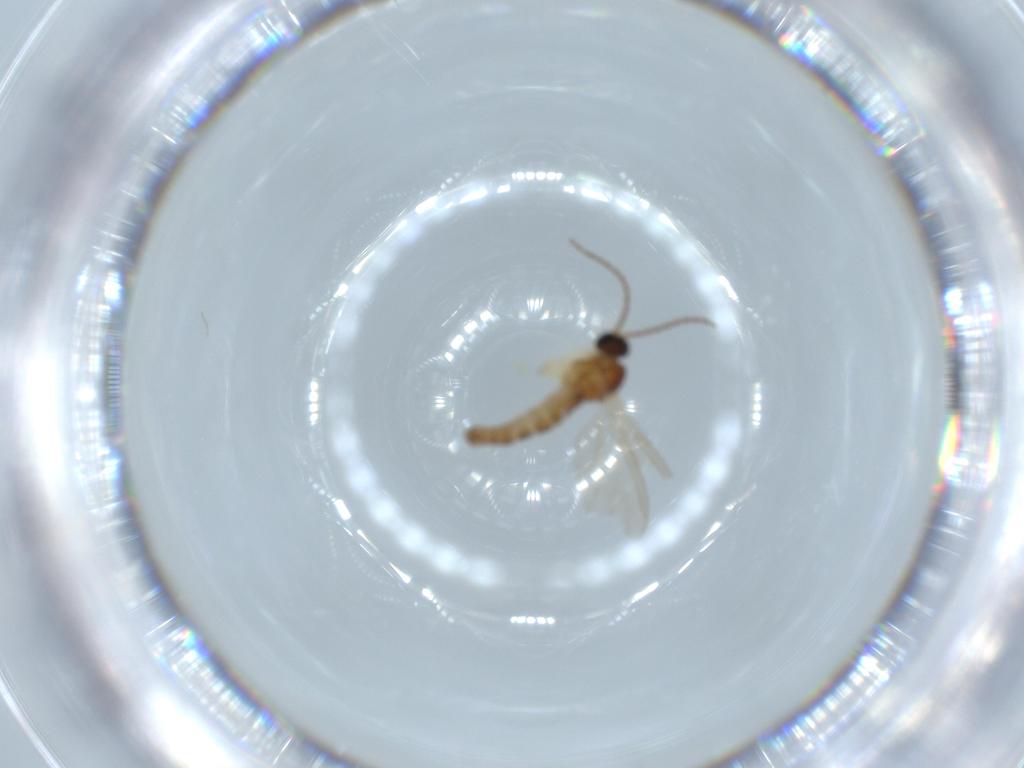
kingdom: Animalia
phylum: Arthropoda
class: Insecta
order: Diptera
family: Sciaridae
